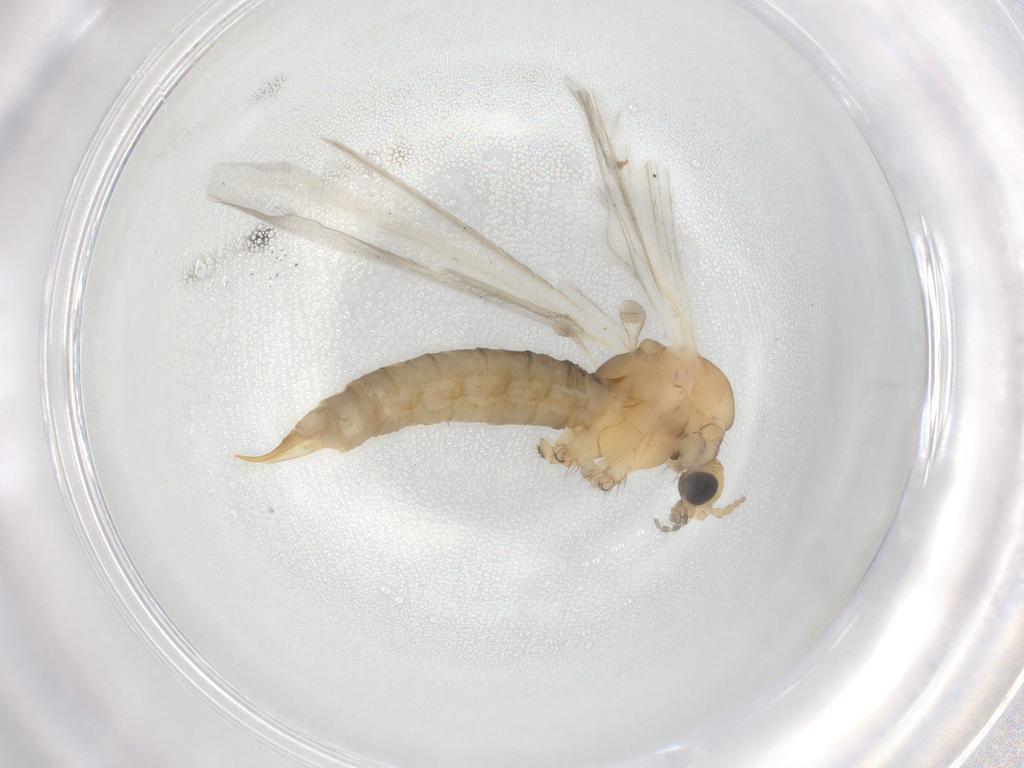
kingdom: Animalia
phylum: Arthropoda
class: Insecta
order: Diptera
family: Limoniidae
